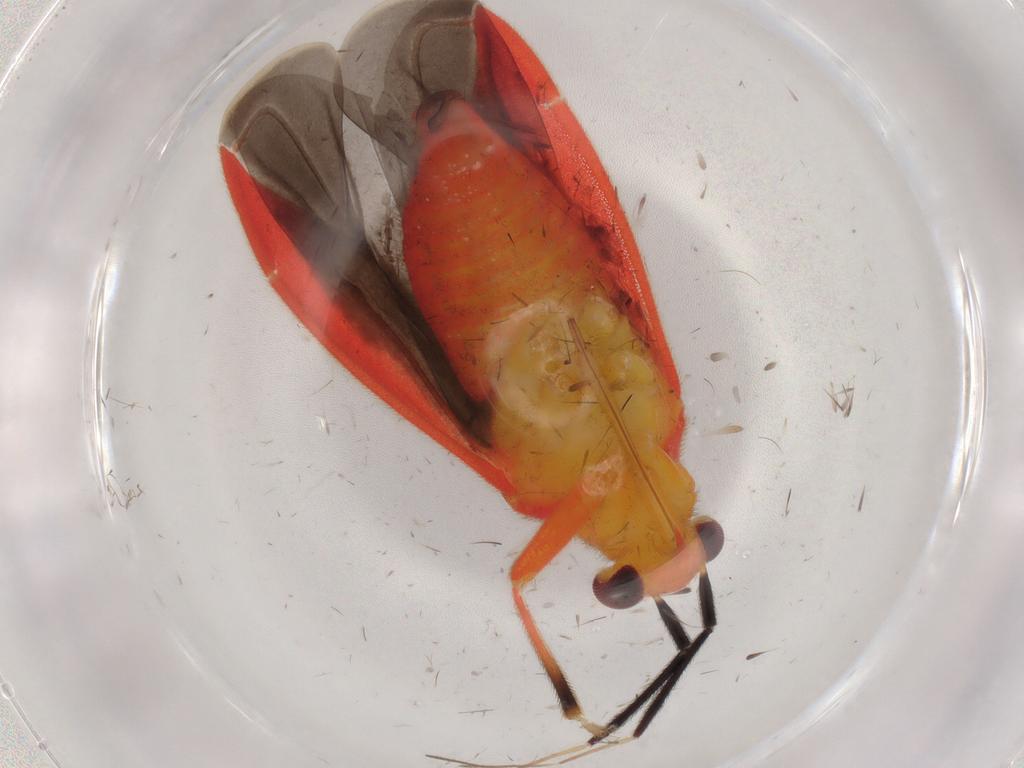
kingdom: Animalia
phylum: Arthropoda
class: Insecta
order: Hemiptera
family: Miridae
